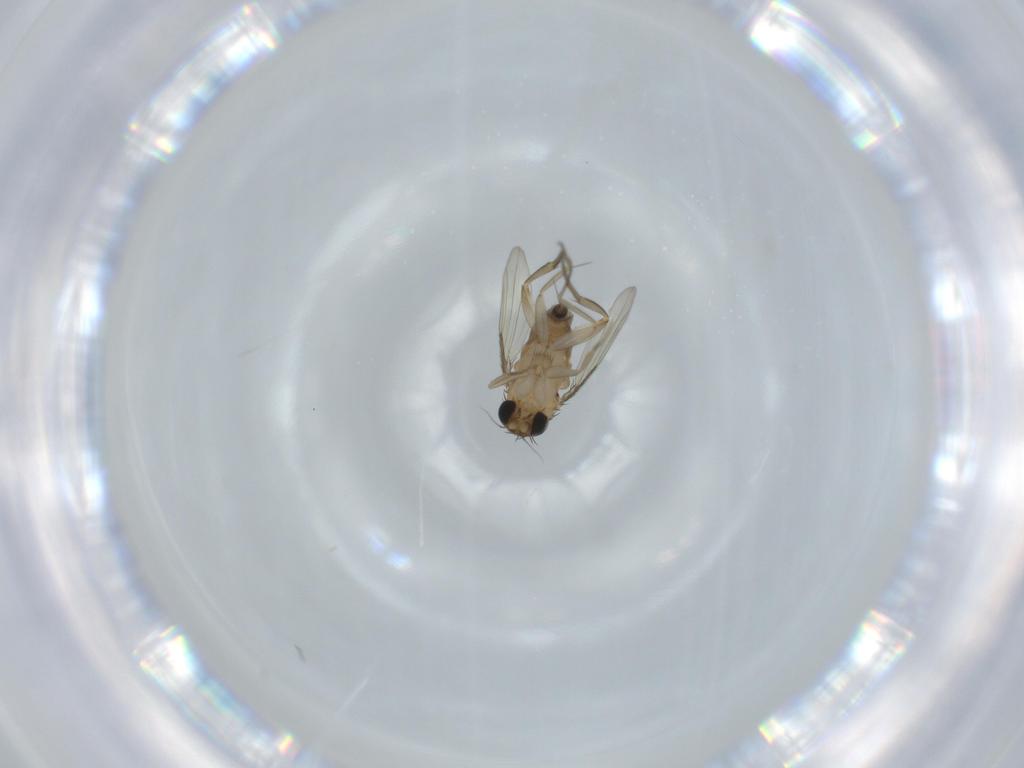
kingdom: Animalia
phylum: Arthropoda
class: Insecta
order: Diptera
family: Phoridae
